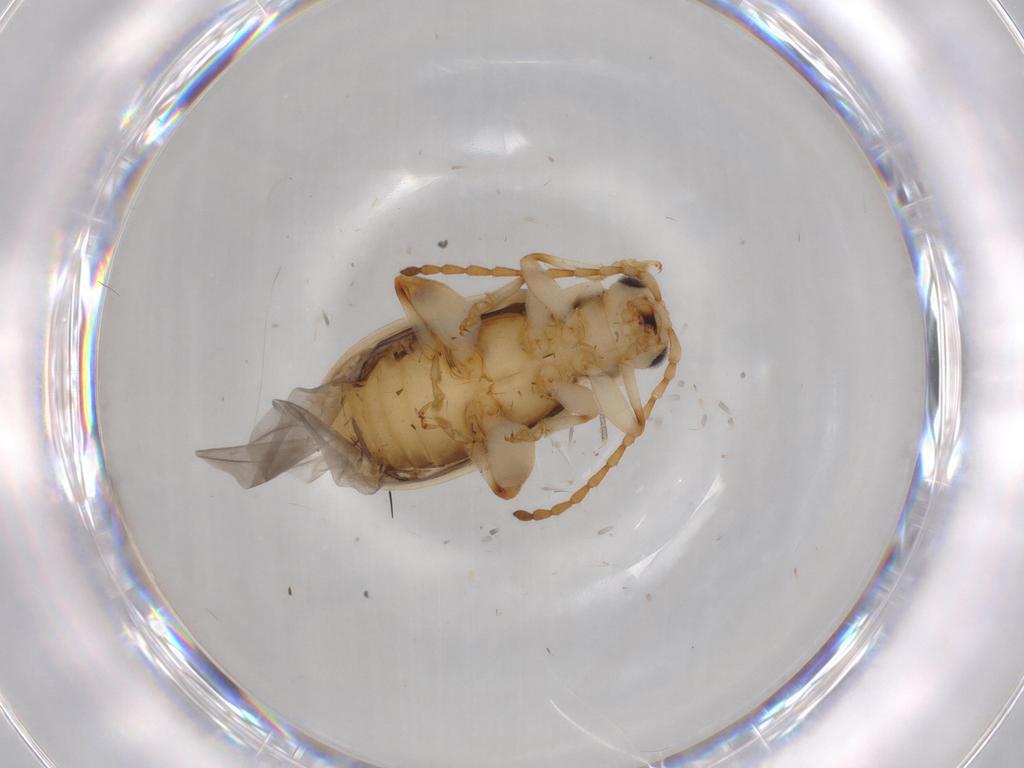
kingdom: Animalia
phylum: Arthropoda
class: Insecta
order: Coleoptera
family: Chrysomelidae
